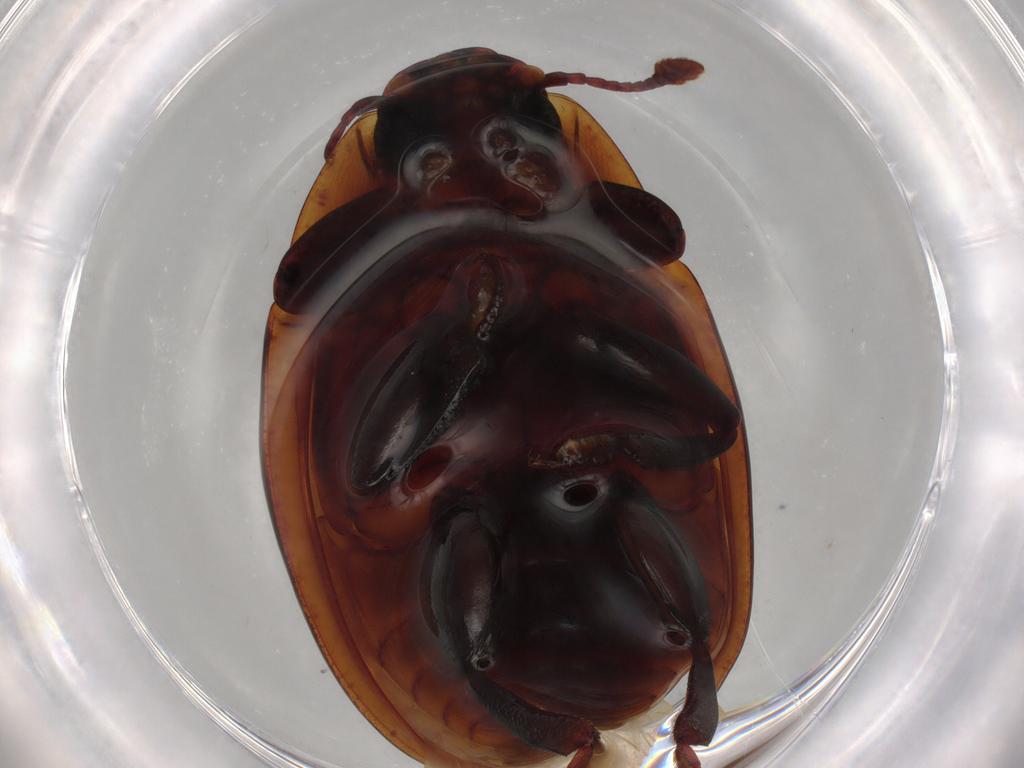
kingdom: Animalia
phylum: Arthropoda
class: Insecta
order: Coleoptera
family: Zopheridae
